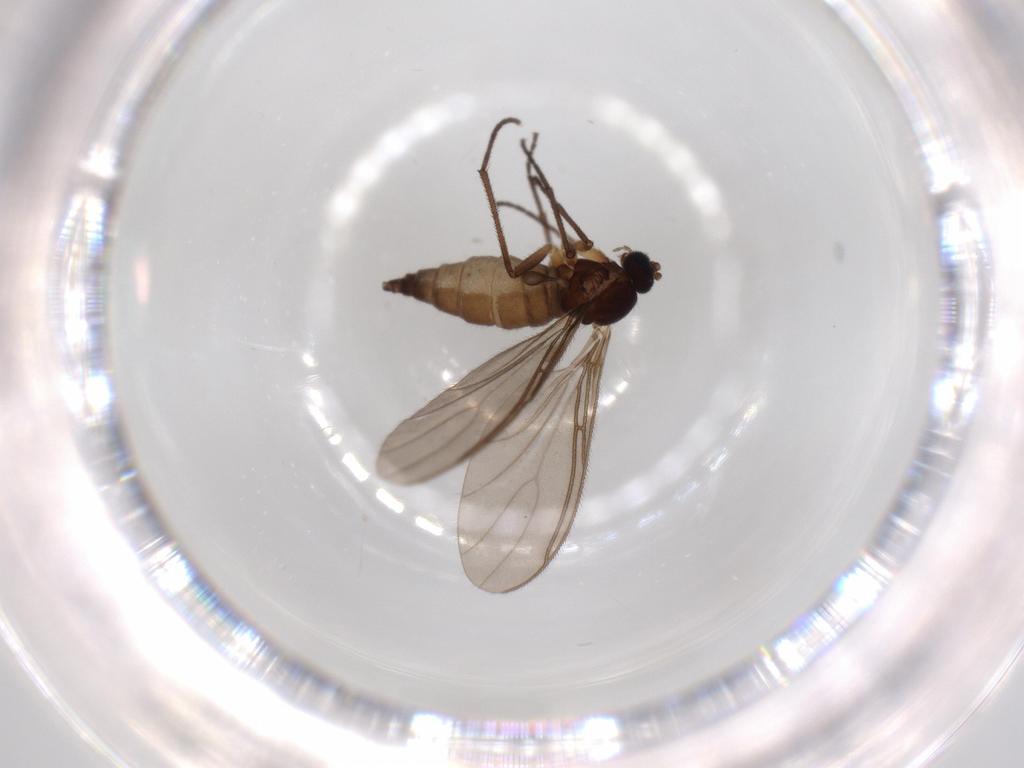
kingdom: Animalia
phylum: Arthropoda
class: Insecta
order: Diptera
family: Sciaridae
